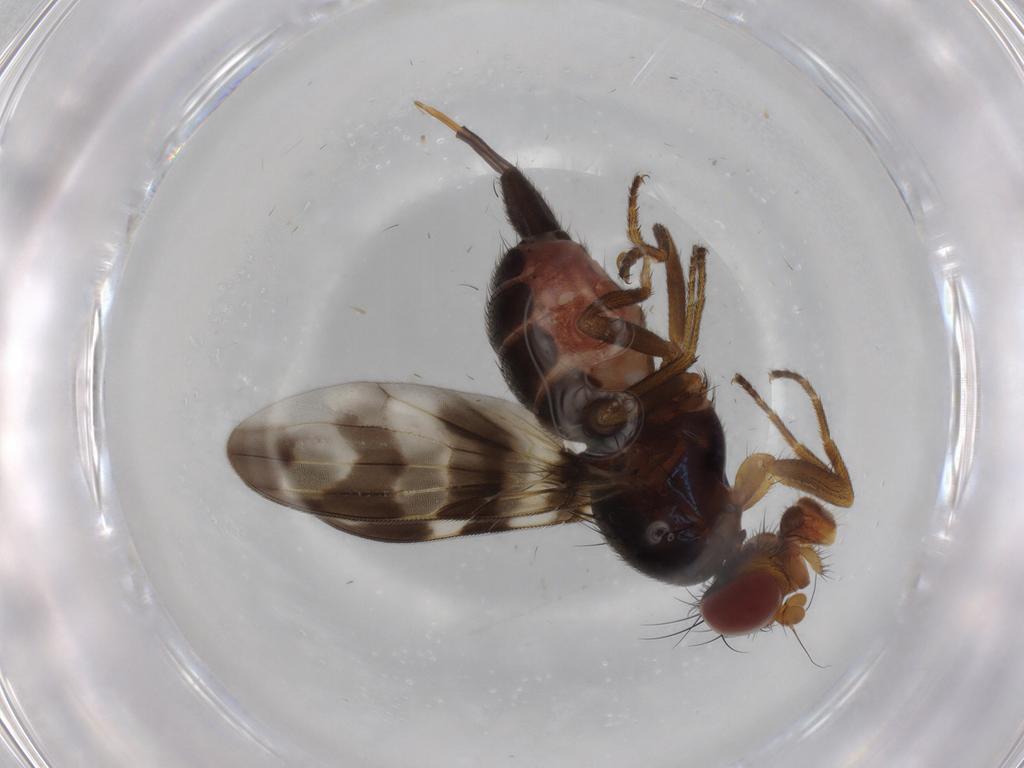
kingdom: Animalia
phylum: Arthropoda
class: Insecta
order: Diptera
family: Ulidiidae
